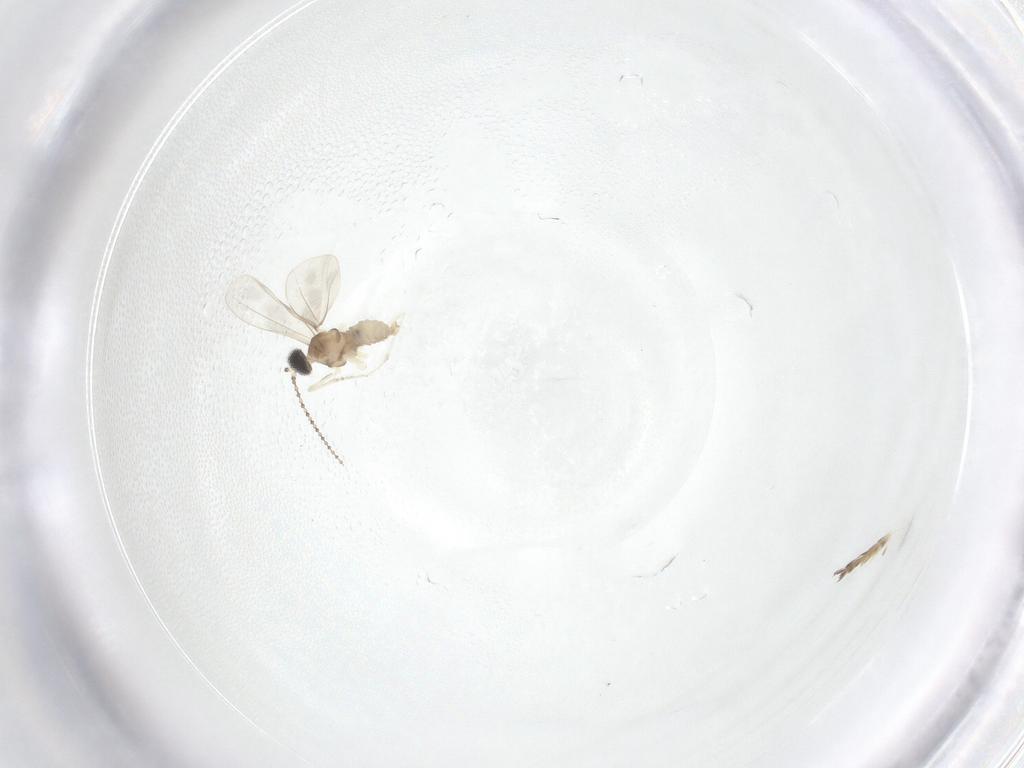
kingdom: Animalia
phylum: Arthropoda
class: Insecta
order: Diptera
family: Cecidomyiidae
